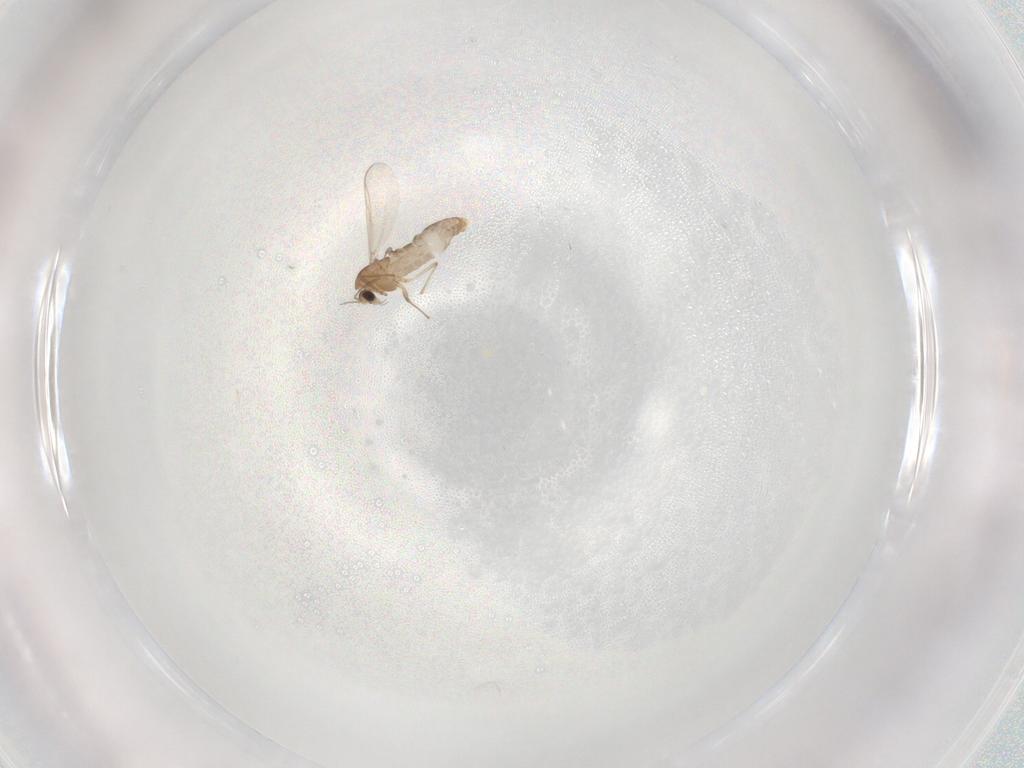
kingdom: Animalia
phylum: Arthropoda
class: Insecta
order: Diptera
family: Chironomidae
